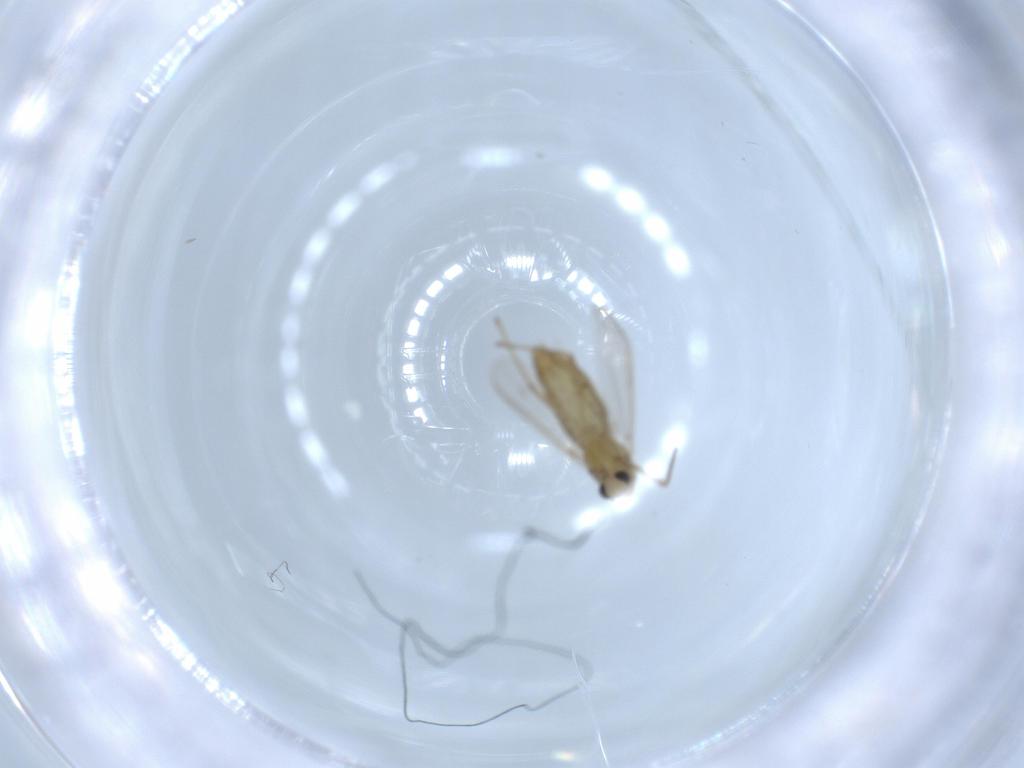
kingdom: Animalia
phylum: Arthropoda
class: Insecta
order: Diptera
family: Chironomidae
